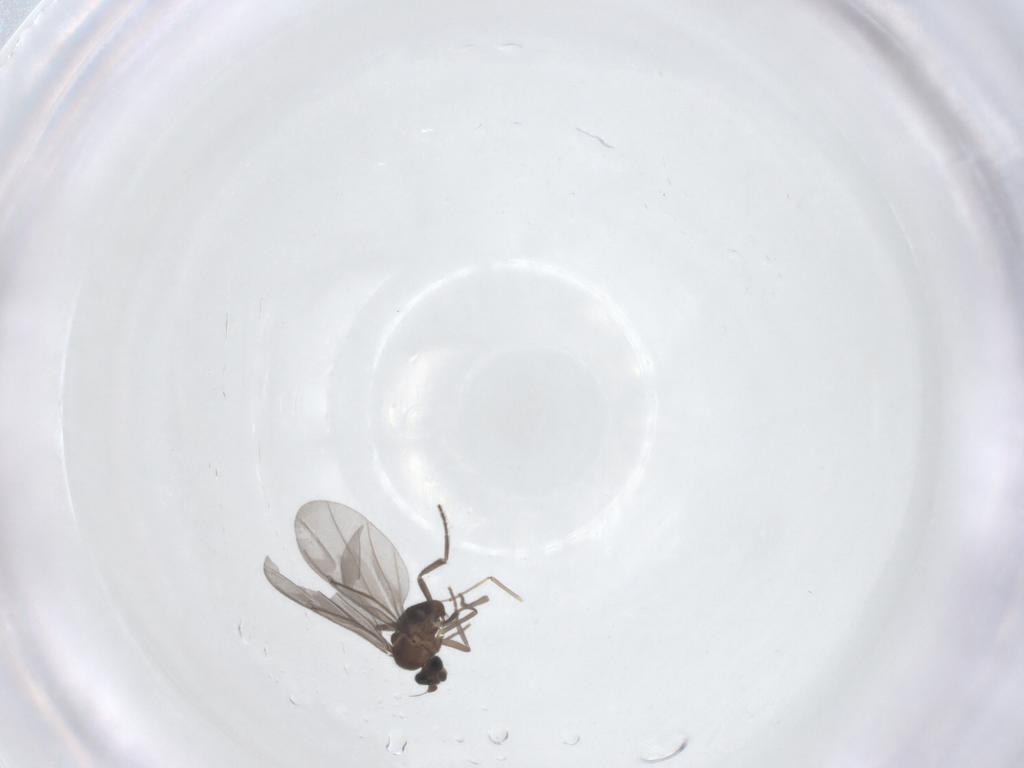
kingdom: Animalia
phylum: Arthropoda
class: Insecta
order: Diptera
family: Phoridae
